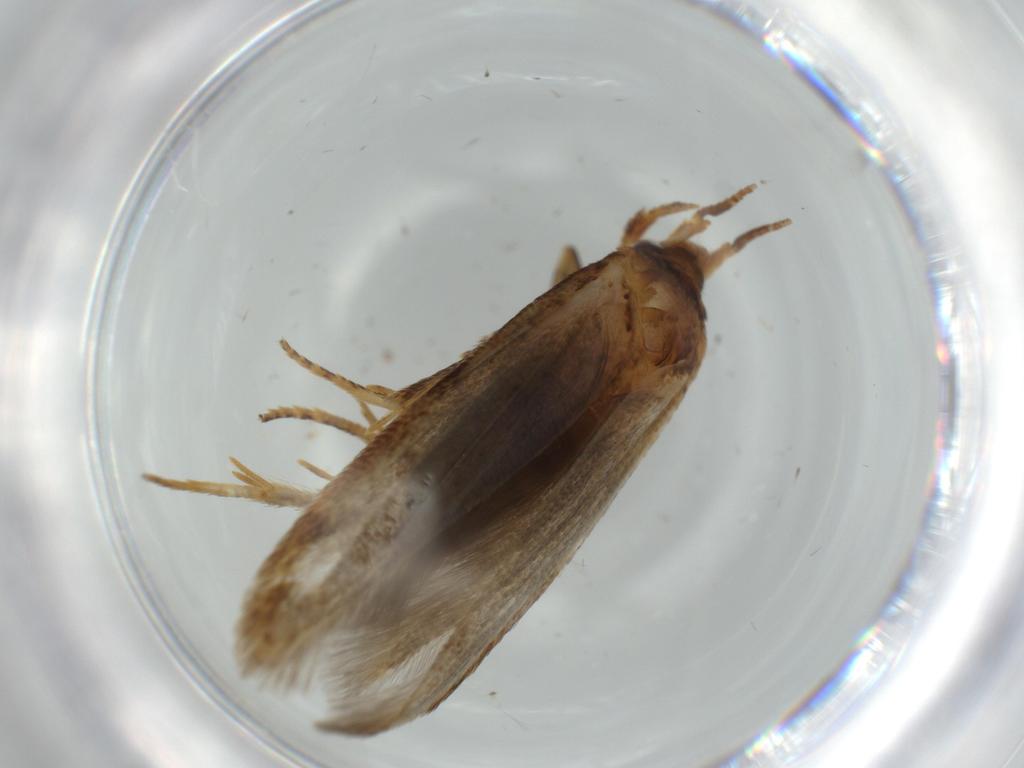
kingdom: Animalia
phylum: Arthropoda
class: Insecta
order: Lepidoptera
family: Coleophoridae
